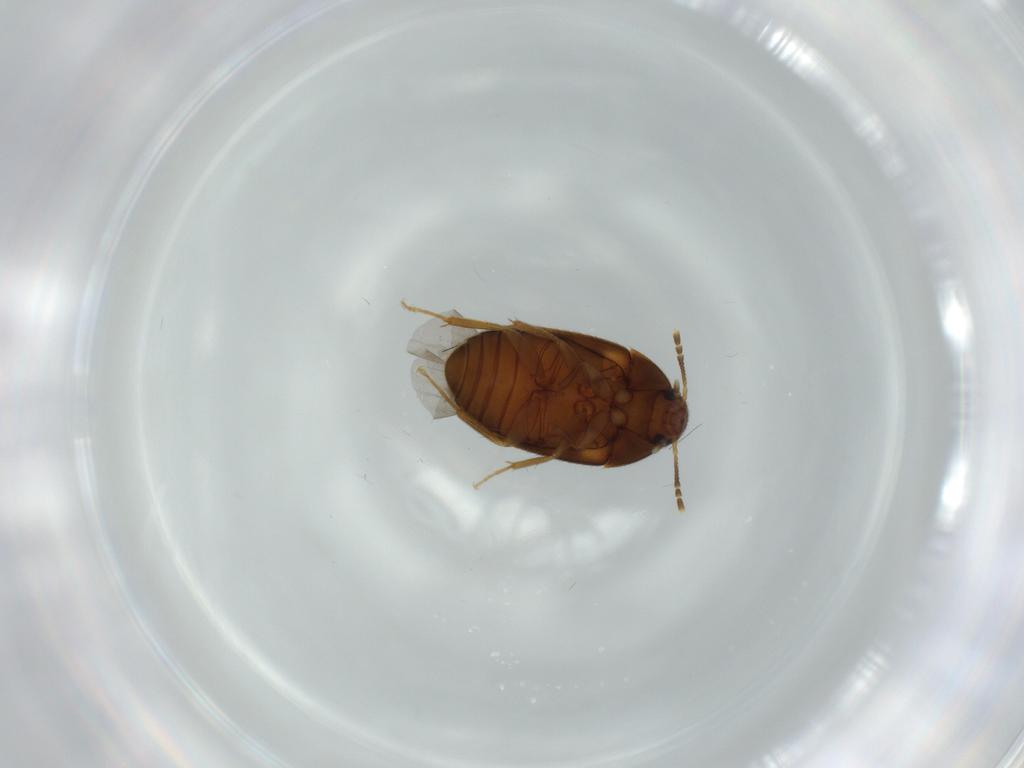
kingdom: Animalia
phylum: Arthropoda
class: Insecta
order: Coleoptera
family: Mycetophagidae
